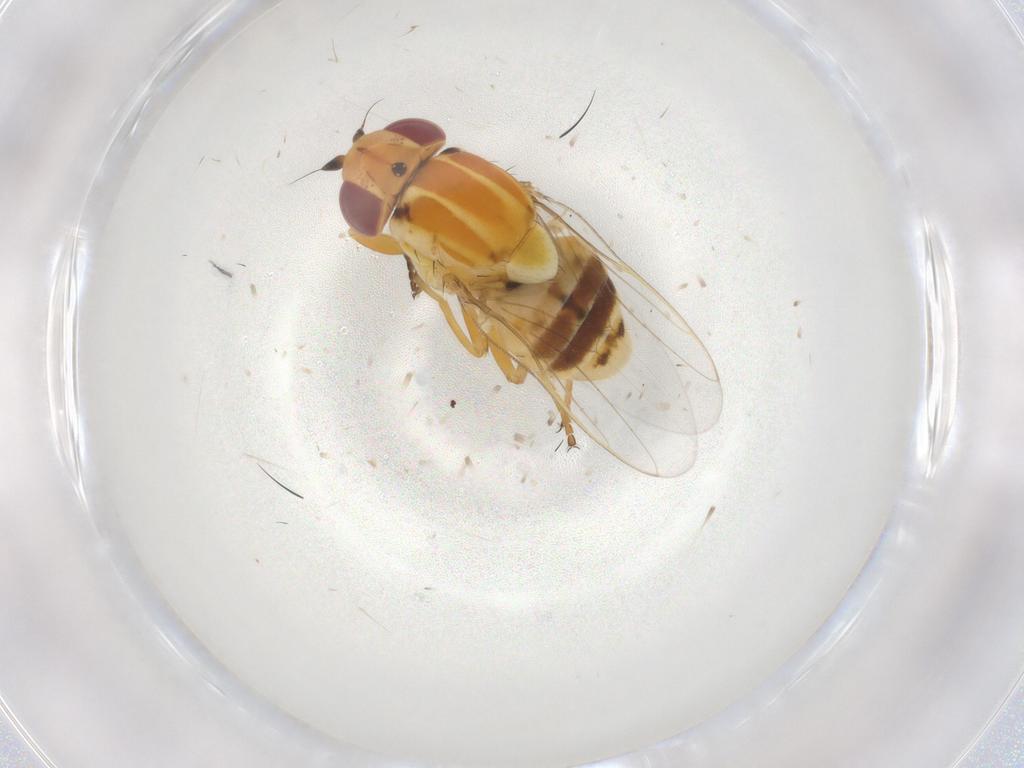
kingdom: Animalia
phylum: Arthropoda
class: Insecta
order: Diptera
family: Chloropidae
